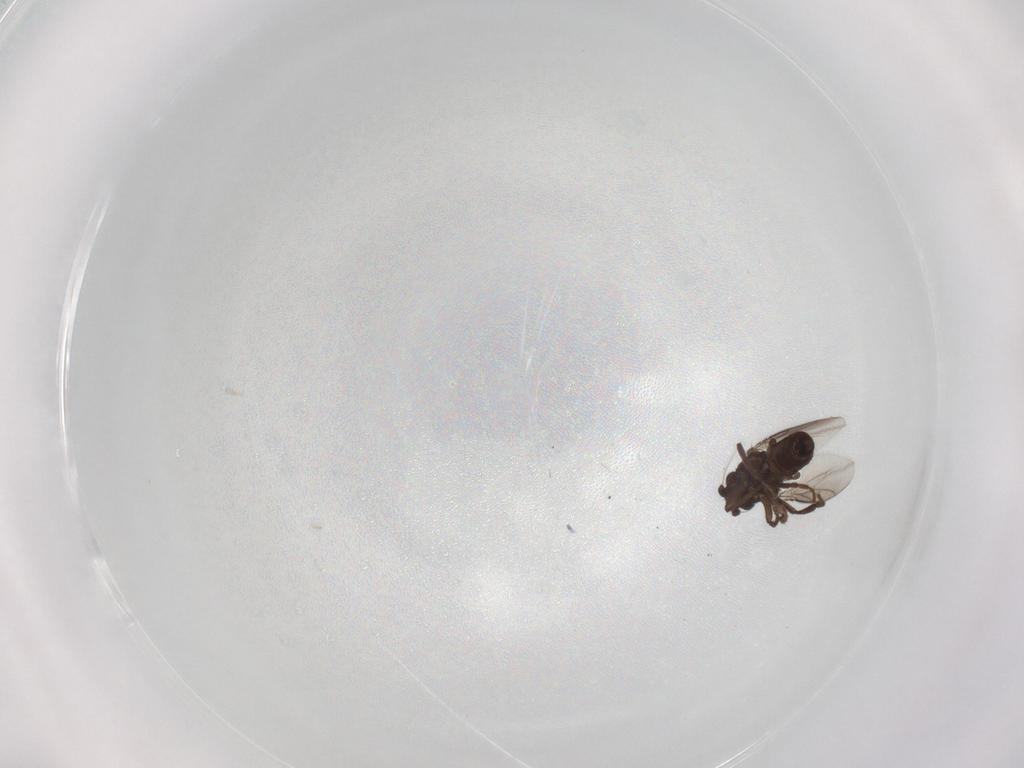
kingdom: Animalia
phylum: Arthropoda
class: Insecta
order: Diptera
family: Sphaeroceridae
